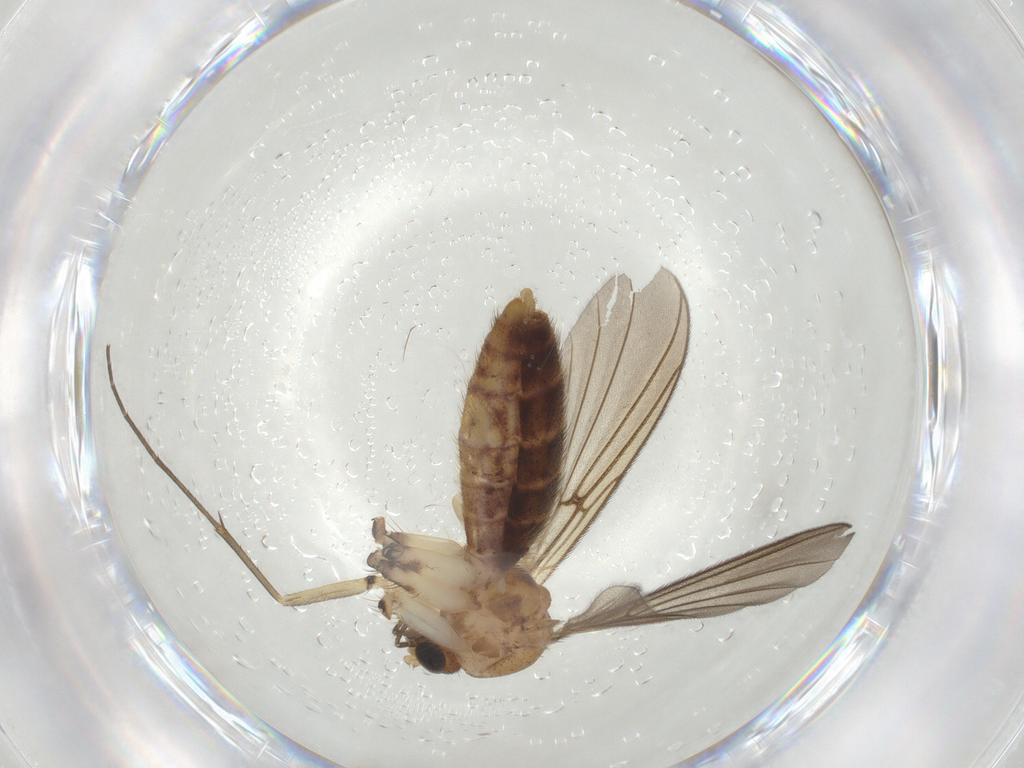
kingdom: Animalia
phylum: Arthropoda
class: Insecta
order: Diptera
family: Mycetophilidae
